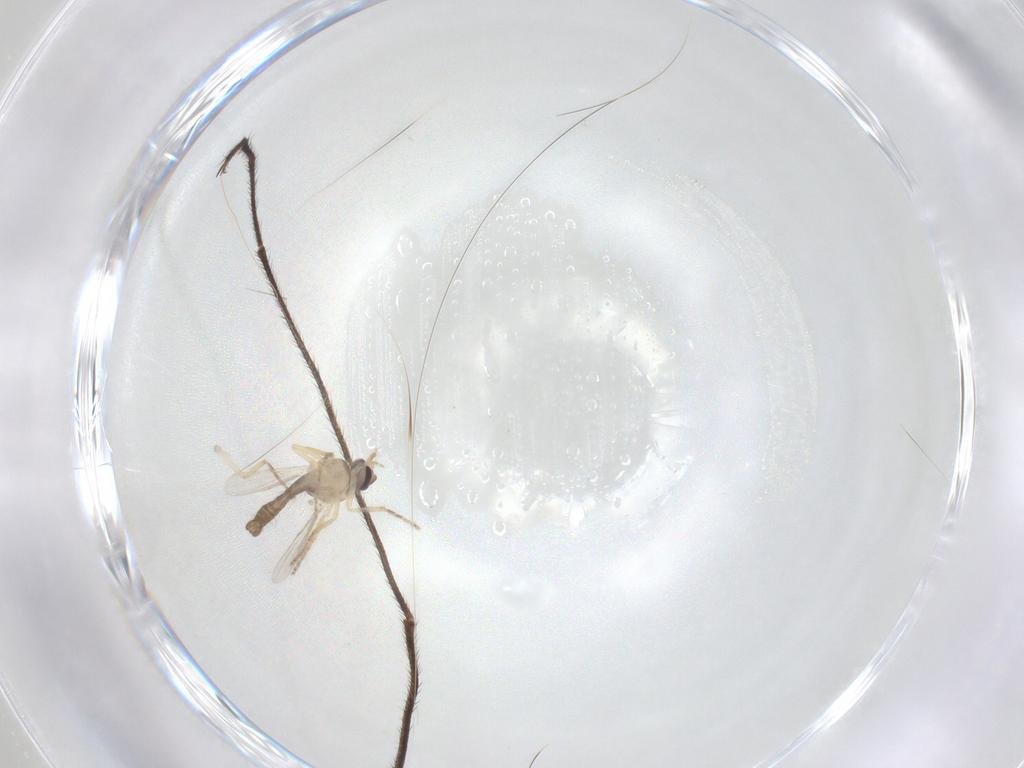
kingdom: Animalia
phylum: Arthropoda
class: Insecta
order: Diptera
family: Ceratopogonidae
